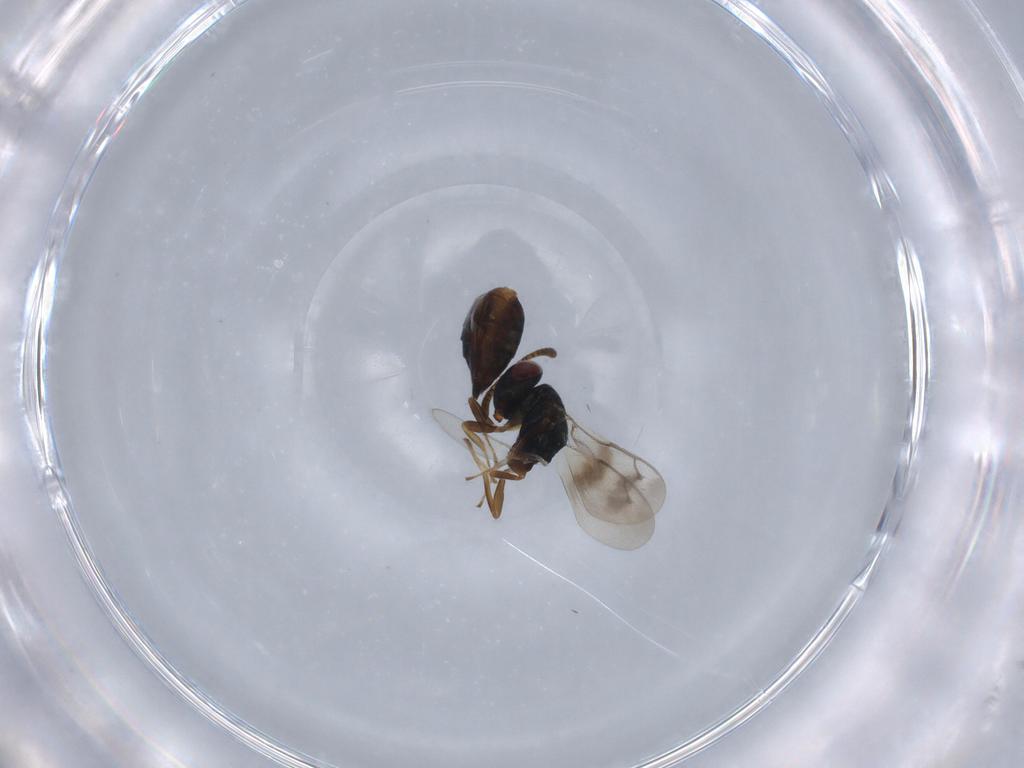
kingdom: Animalia
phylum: Arthropoda
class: Insecta
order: Hymenoptera
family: Pteromalidae
